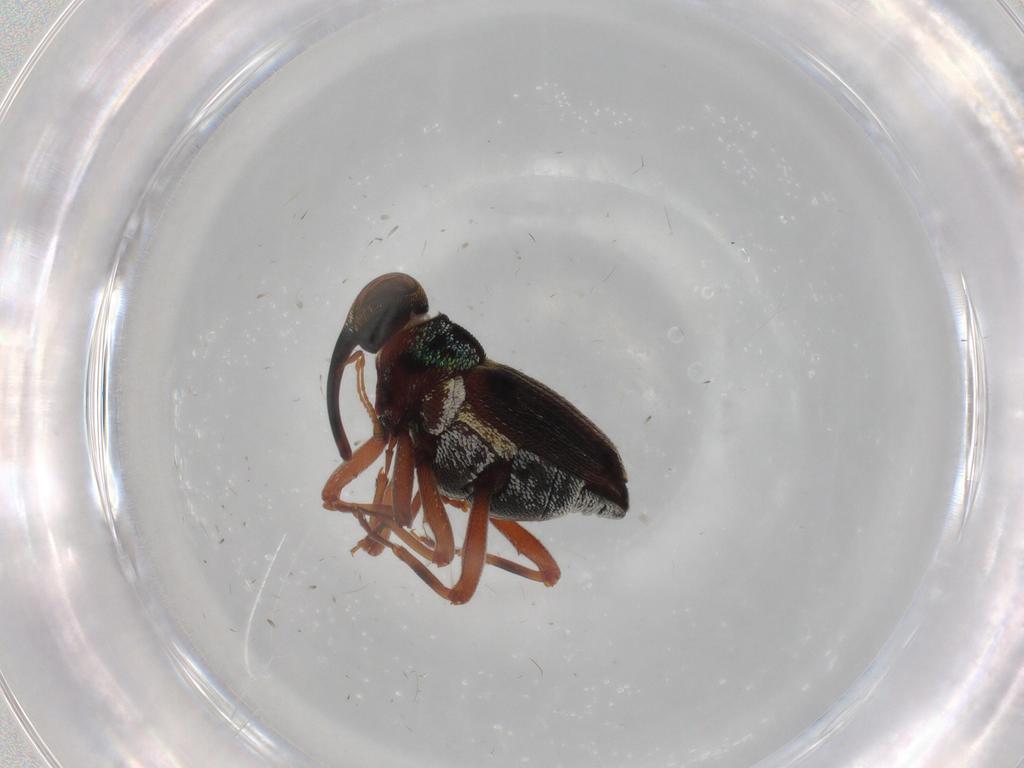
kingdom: Animalia
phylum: Arthropoda
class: Insecta
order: Coleoptera
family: Curculionidae
